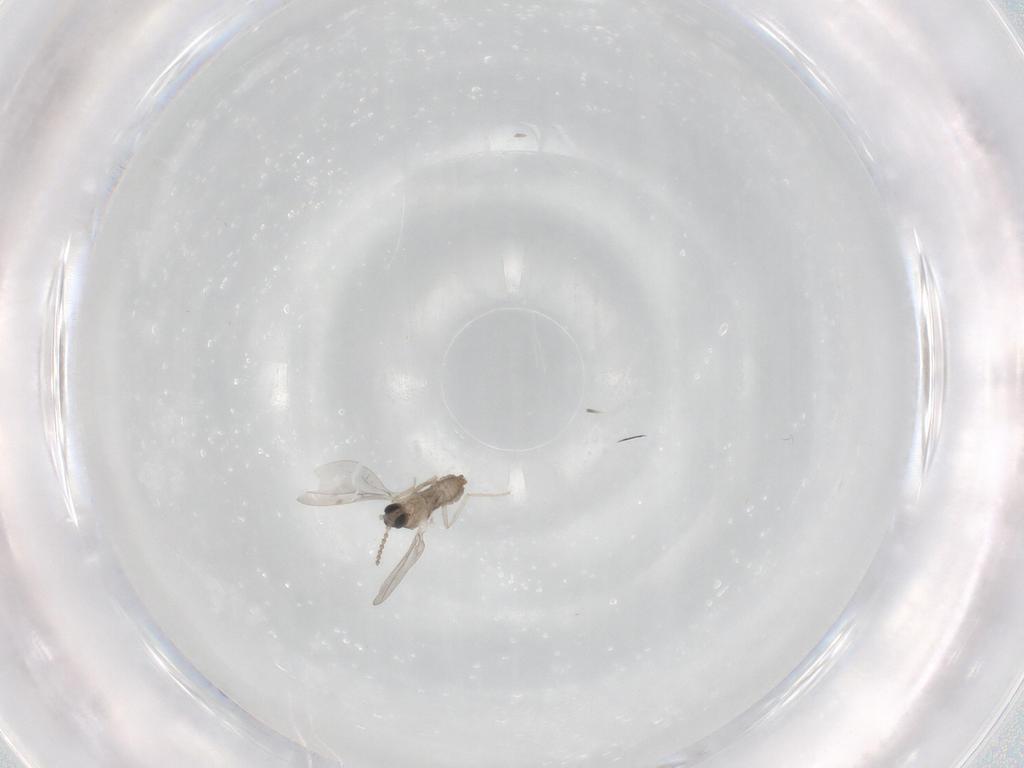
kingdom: Animalia
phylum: Arthropoda
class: Insecta
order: Diptera
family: Cecidomyiidae
